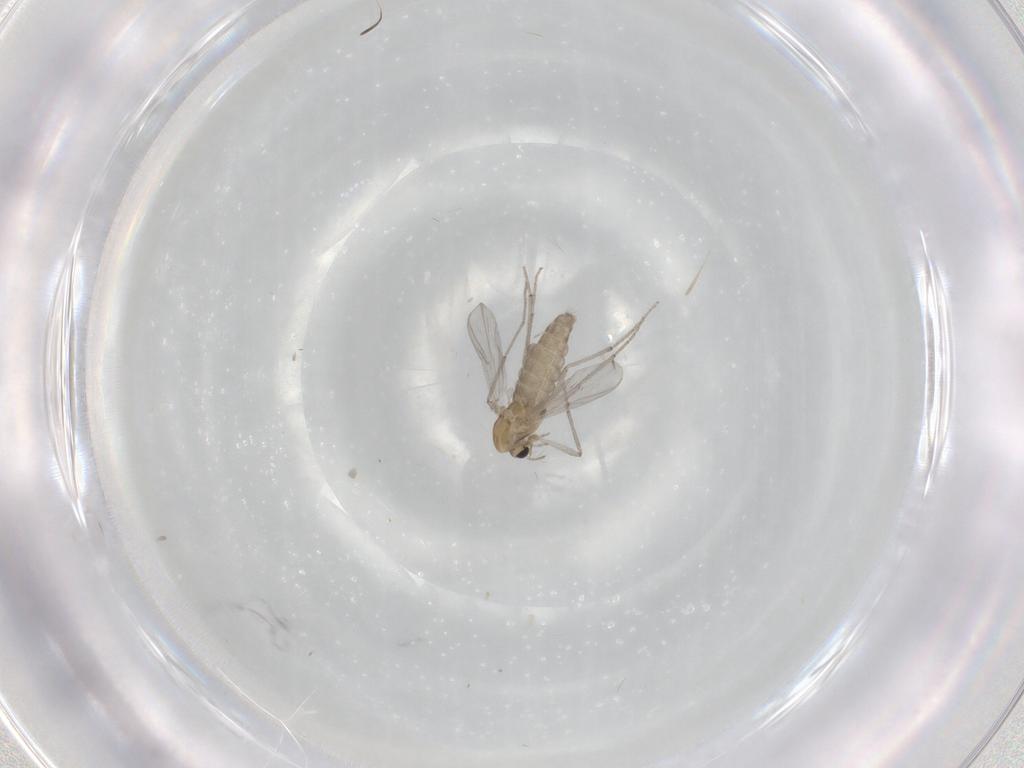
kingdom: Animalia
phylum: Arthropoda
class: Insecta
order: Diptera
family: Chironomidae
